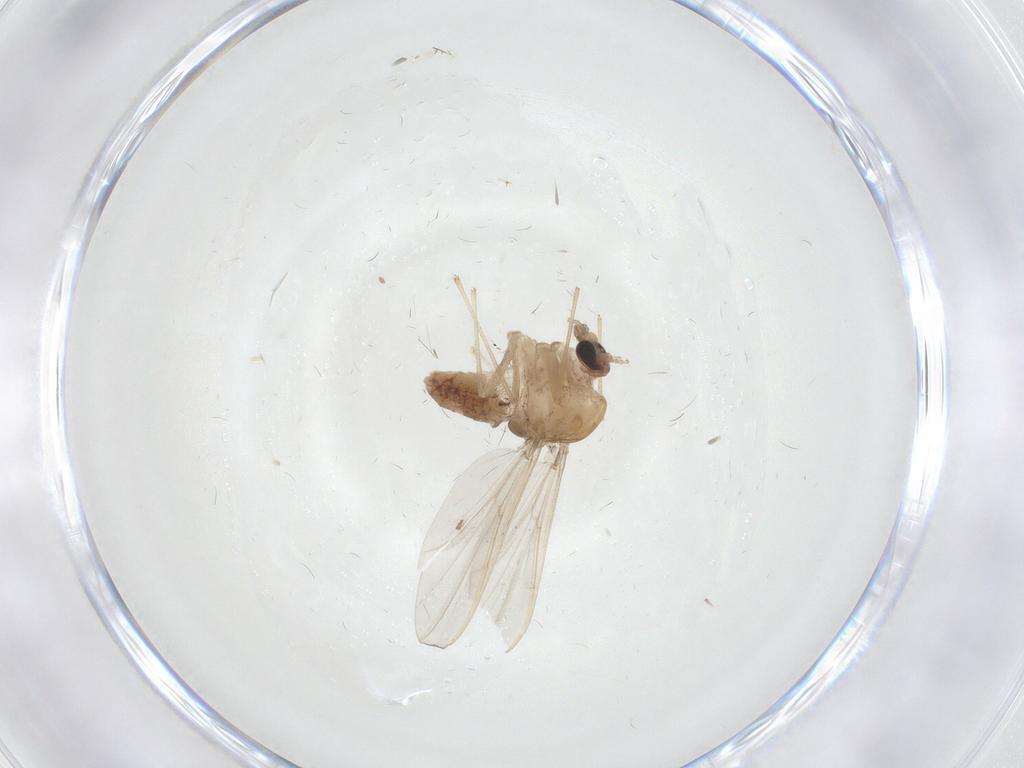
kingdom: Animalia
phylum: Arthropoda
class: Insecta
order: Diptera
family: Chironomidae
